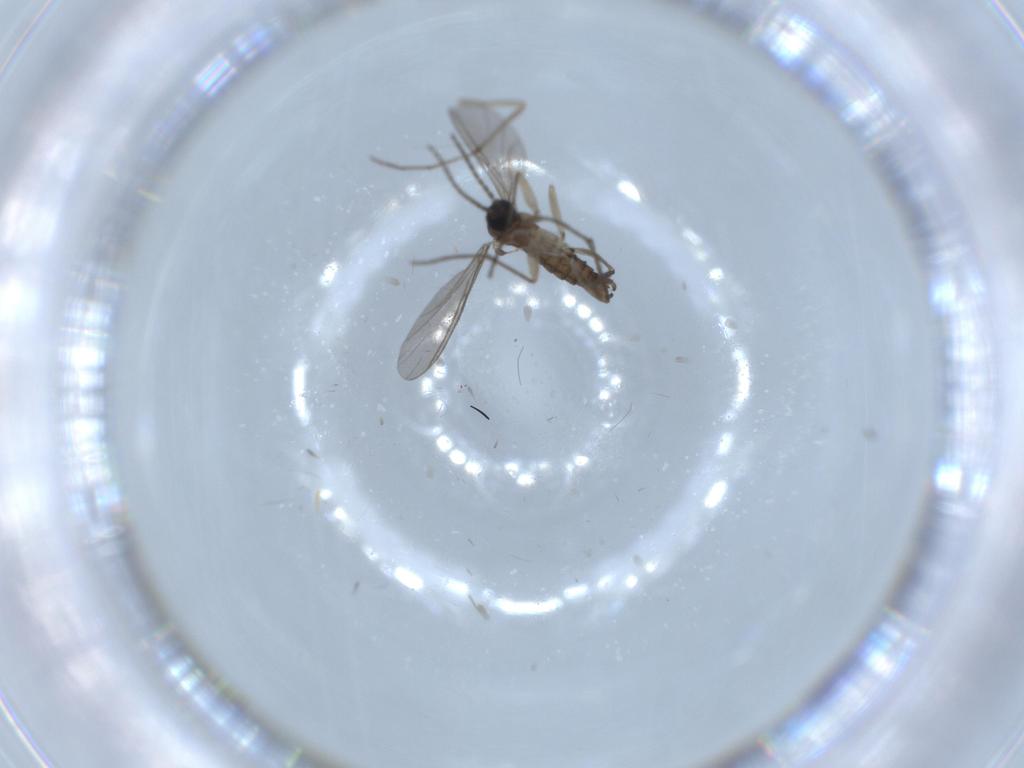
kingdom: Animalia
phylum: Arthropoda
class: Insecta
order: Diptera
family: Sciaridae
